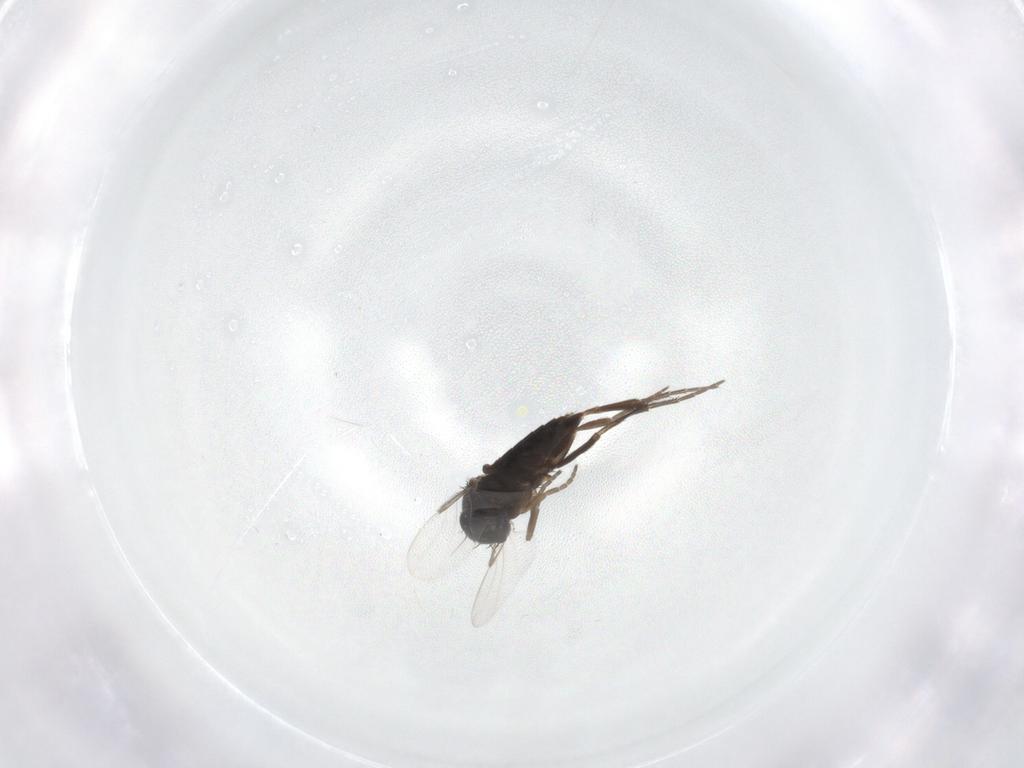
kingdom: Animalia
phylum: Arthropoda
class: Insecta
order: Diptera
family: Phoridae
